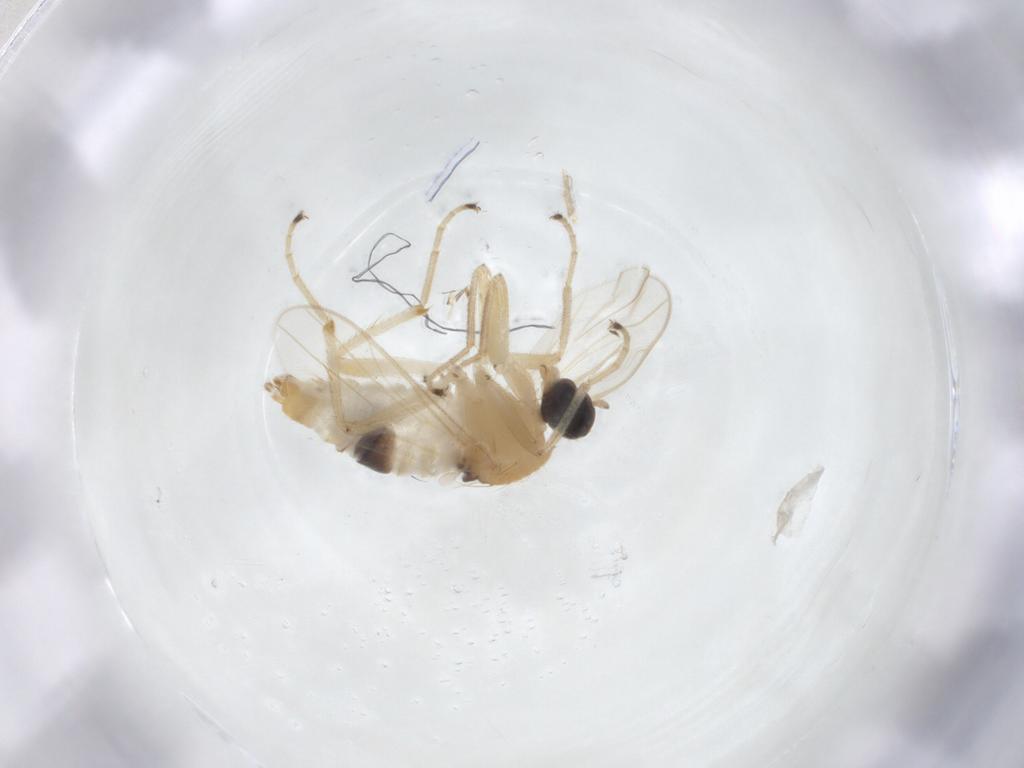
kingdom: Animalia
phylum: Arthropoda
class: Insecta
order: Diptera
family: Hybotidae
